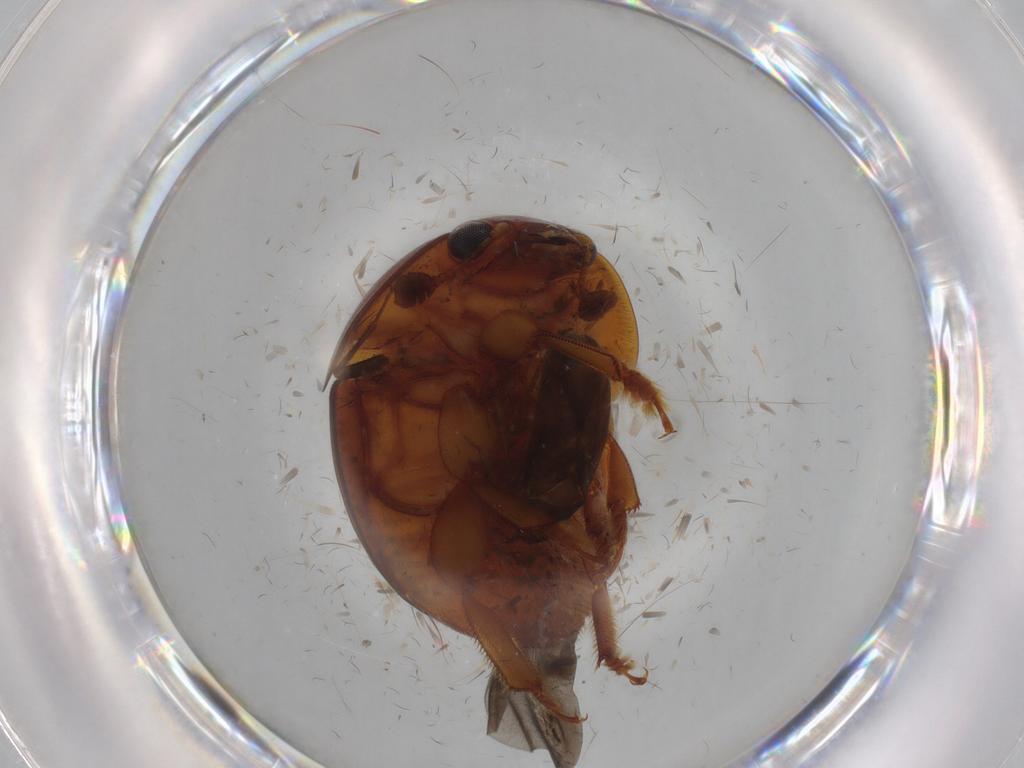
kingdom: Animalia
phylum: Arthropoda
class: Insecta
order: Coleoptera
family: Nitidulidae
